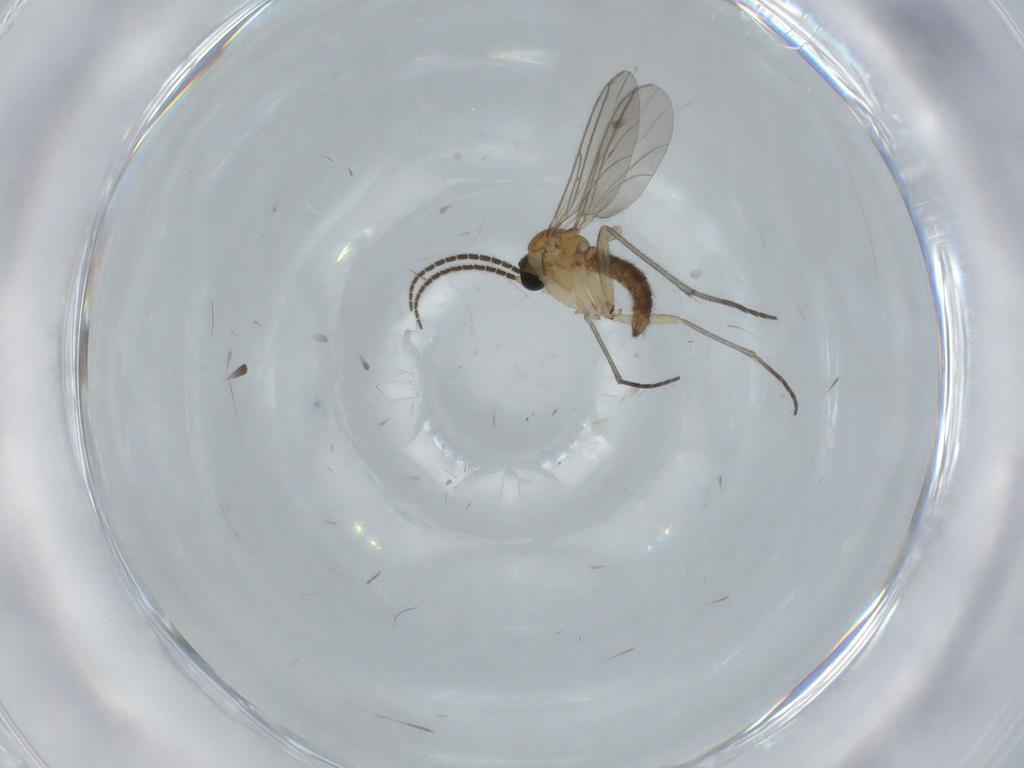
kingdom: Animalia
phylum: Arthropoda
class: Insecta
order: Diptera
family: Sciaridae
